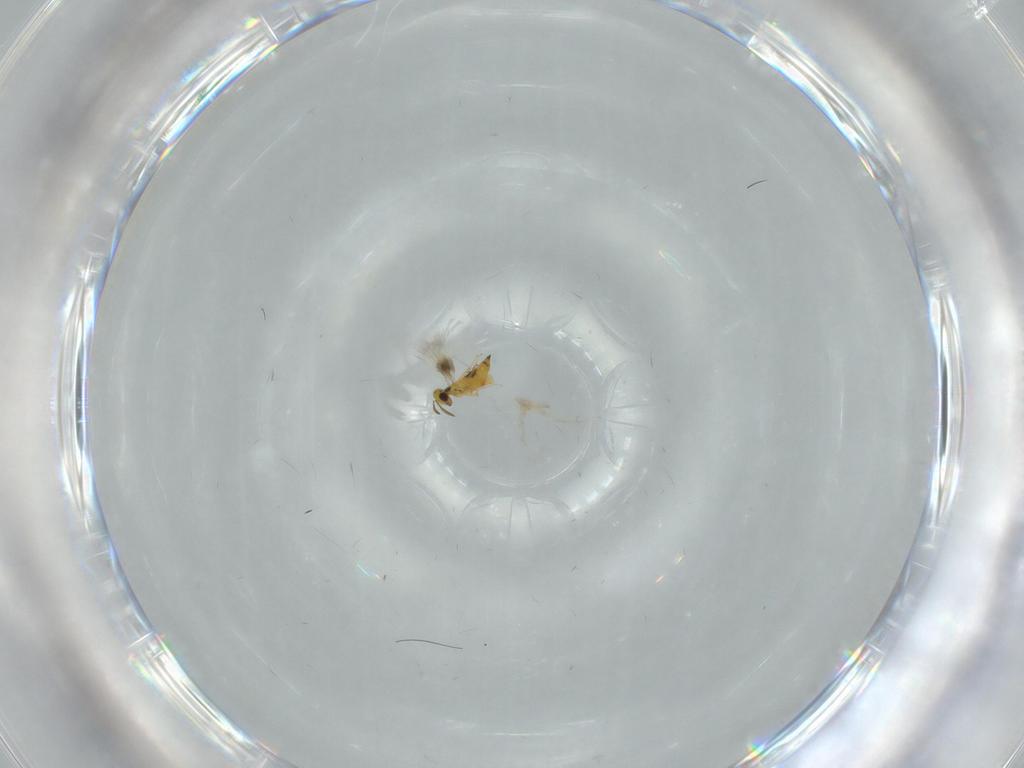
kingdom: Animalia
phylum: Arthropoda
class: Insecta
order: Hymenoptera
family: Signiphoridae
